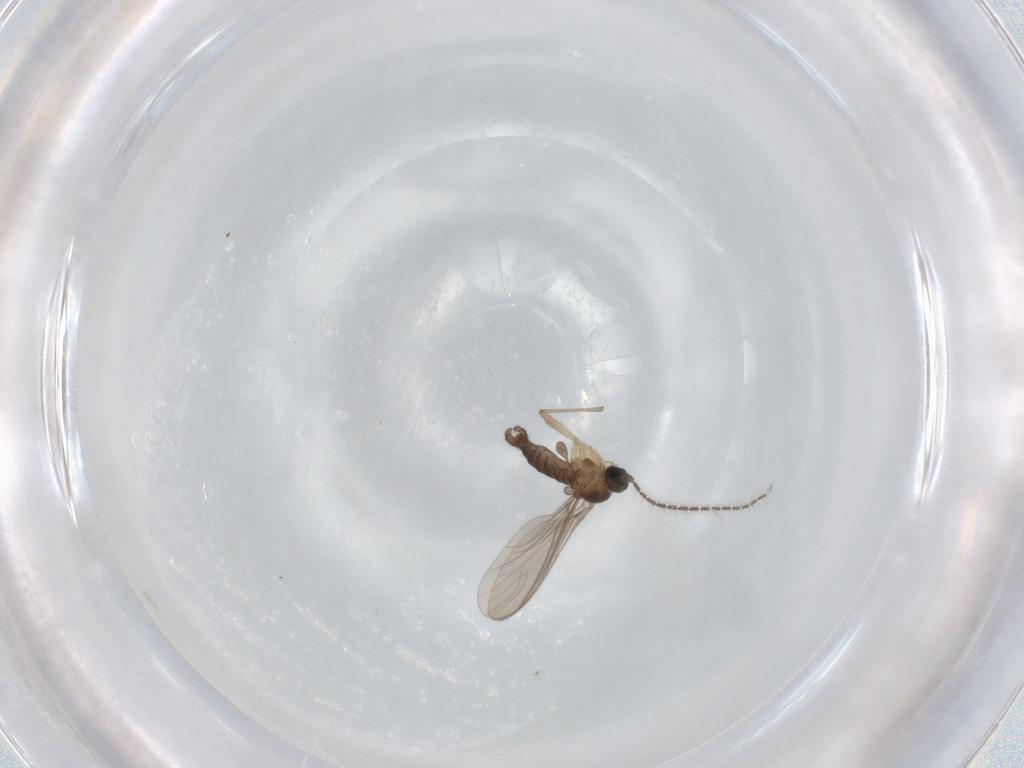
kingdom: Animalia
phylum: Arthropoda
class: Insecta
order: Diptera
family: Sciaridae
